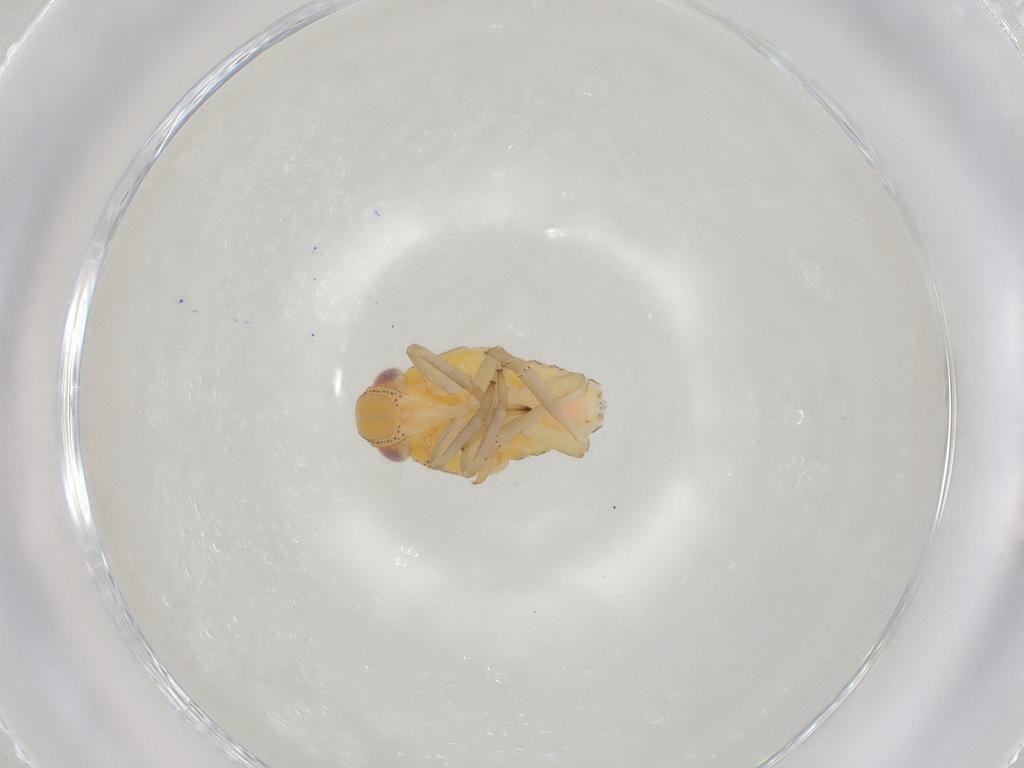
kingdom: Animalia
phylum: Arthropoda
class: Insecta
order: Hemiptera
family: Tropiduchidae
